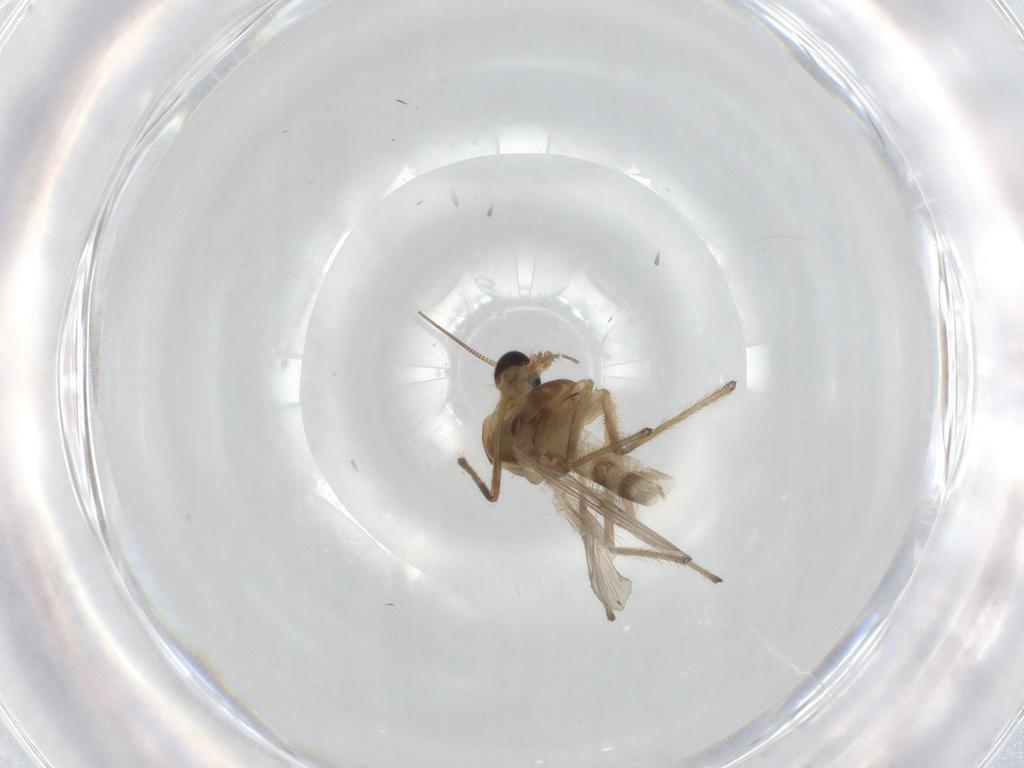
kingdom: Animalia
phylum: Arthropoda
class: Insecta
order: Diptera
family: Chironomidae
